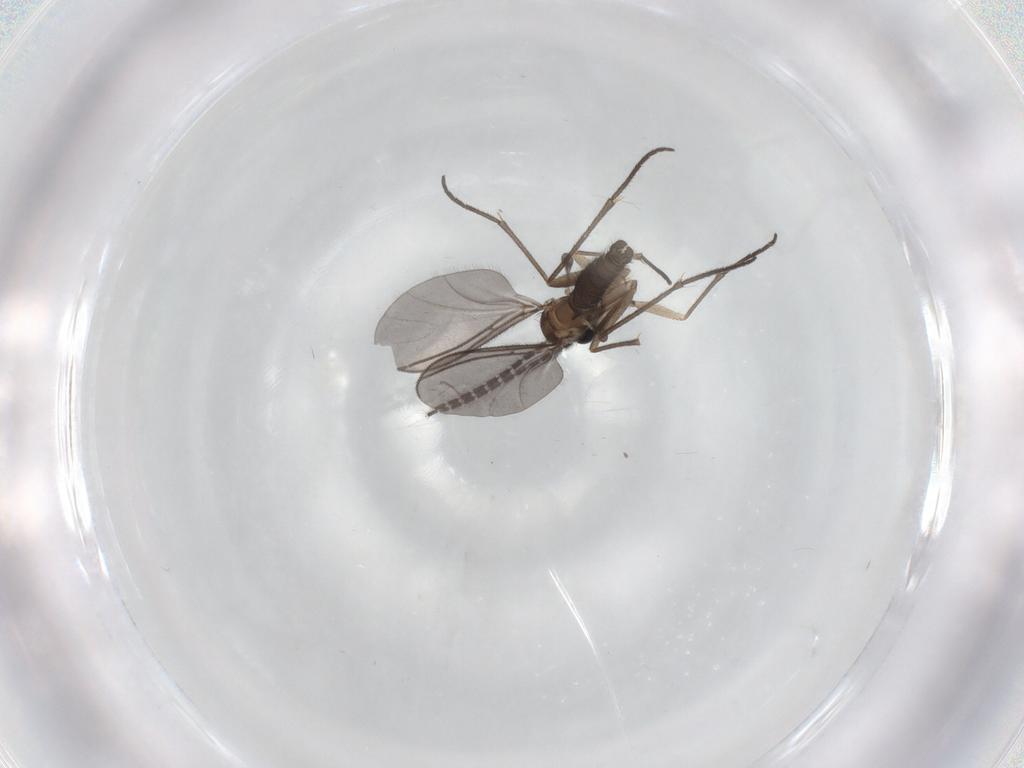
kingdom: Animalia
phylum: Arthropoda
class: Insecta
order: Diptera
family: Sciaridae
